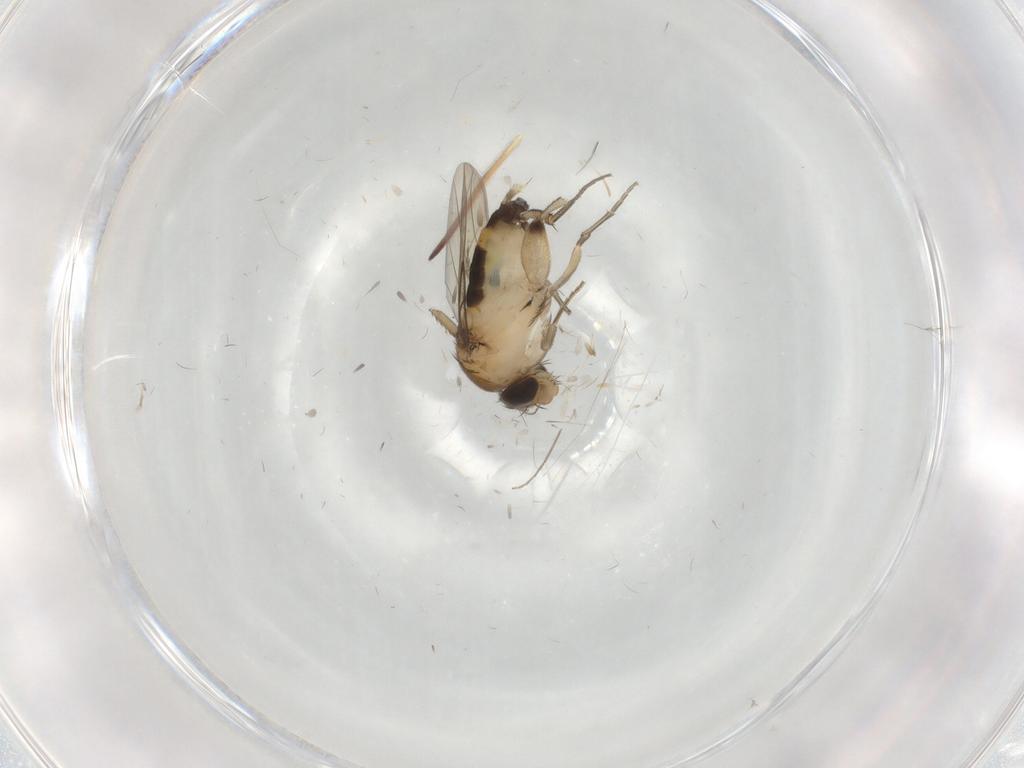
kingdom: Animalia
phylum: Arthropoda
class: Insecta
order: Diptera
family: Phoridae
